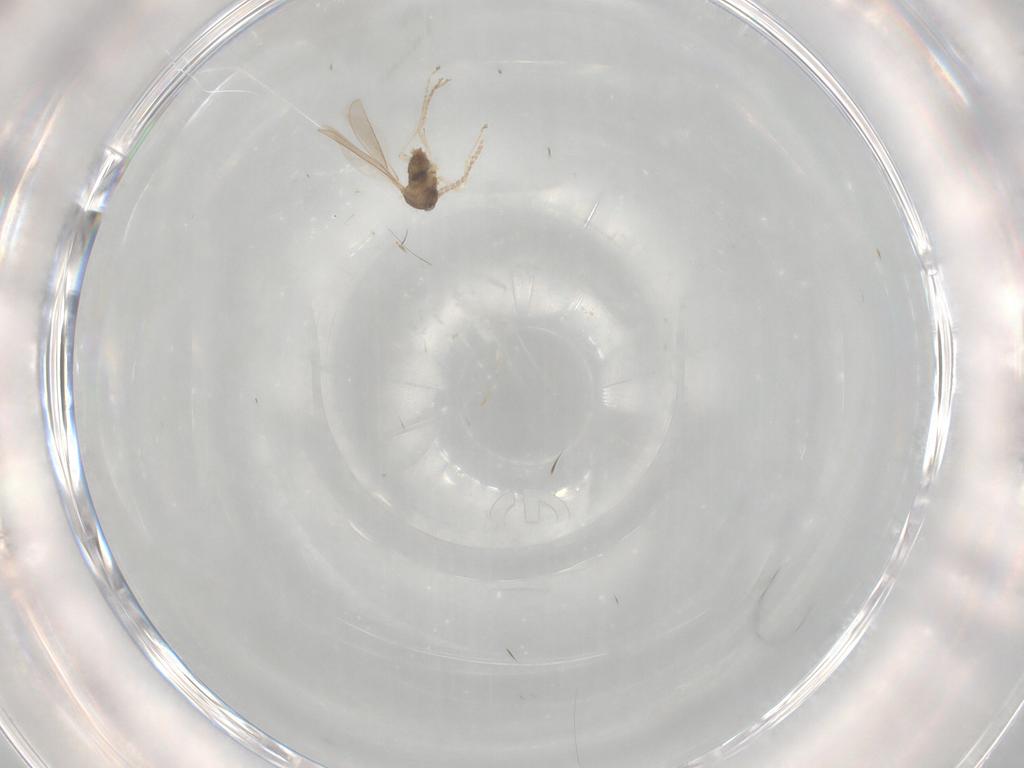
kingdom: Animalia
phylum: Arthropoda
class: Insecta
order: Diptera
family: Cecidomyiidae
